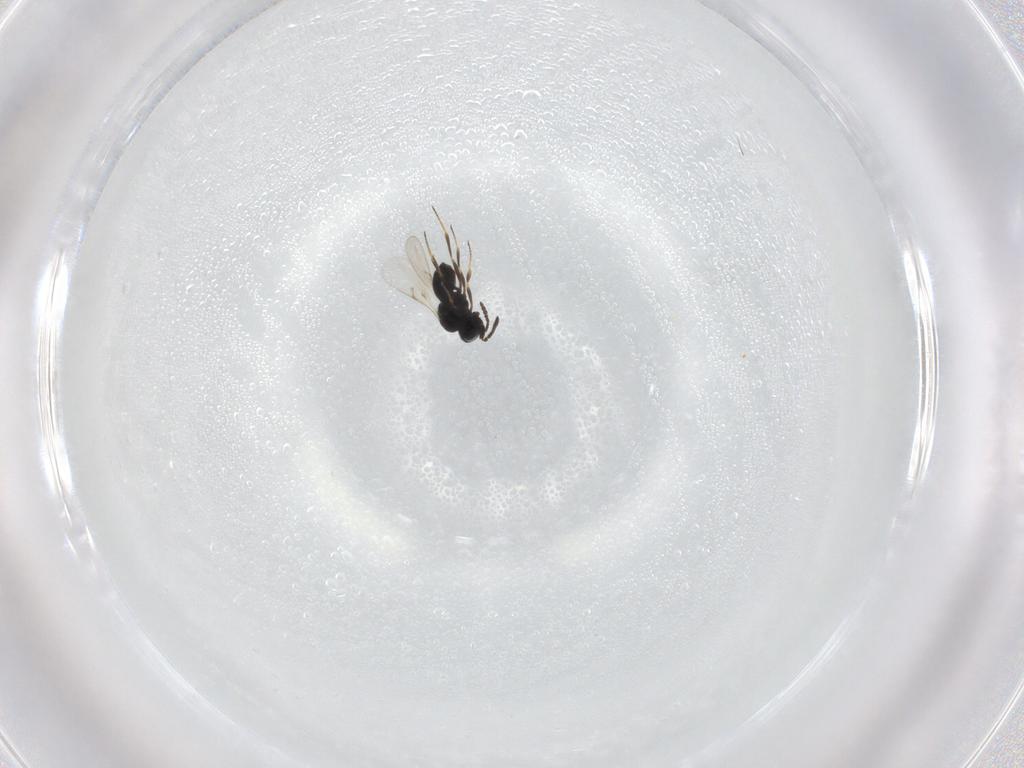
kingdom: Animalia
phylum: Arthropoda
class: Insecta
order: Hymenoptera
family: Scelionidae
